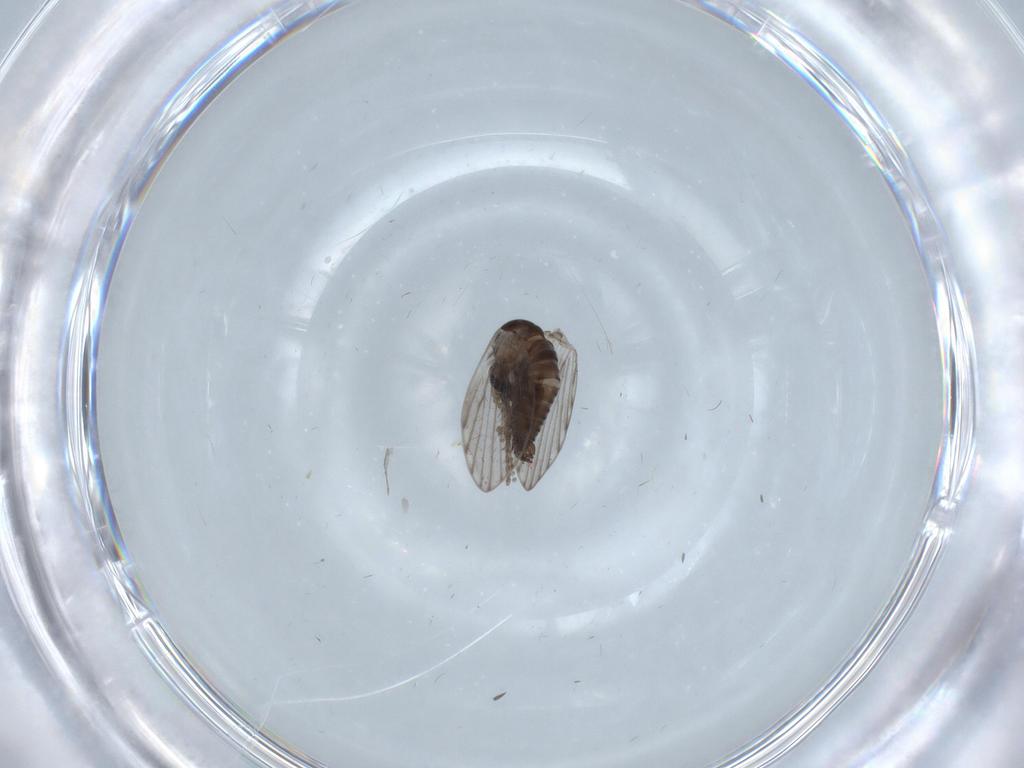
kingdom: Animalia
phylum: Arthropoda
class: Insecta
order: Diptera
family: Psychodidae
